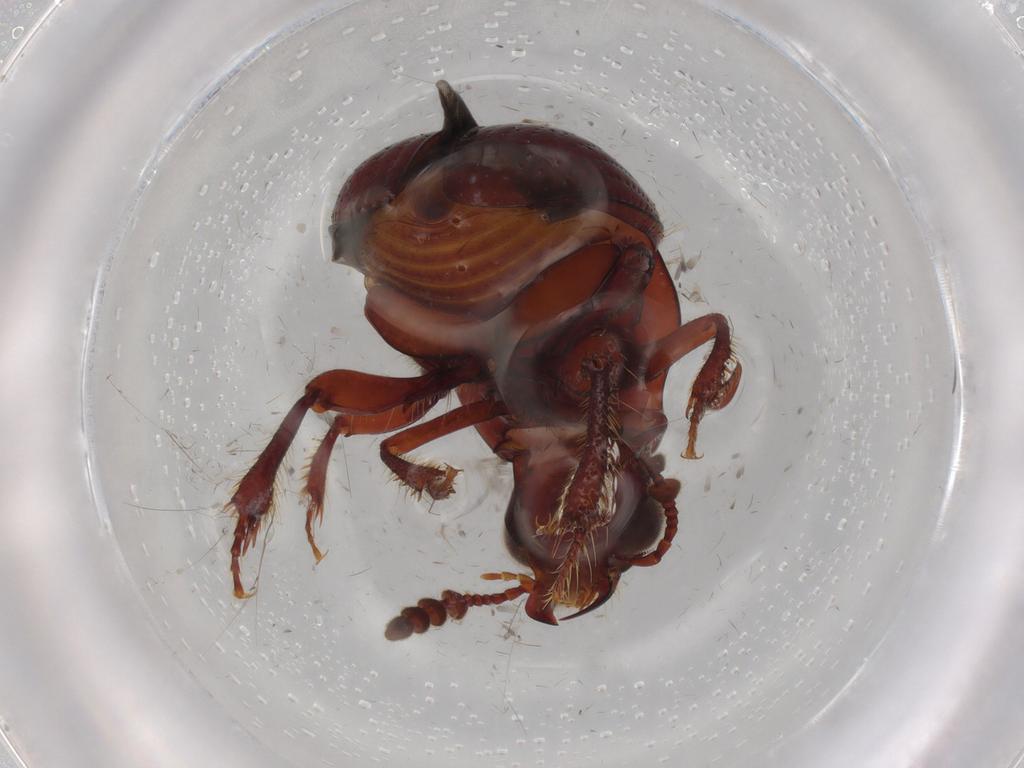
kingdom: Animalia
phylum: Arthropoda
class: Insecta
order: Coleoptera
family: Leiodidae
